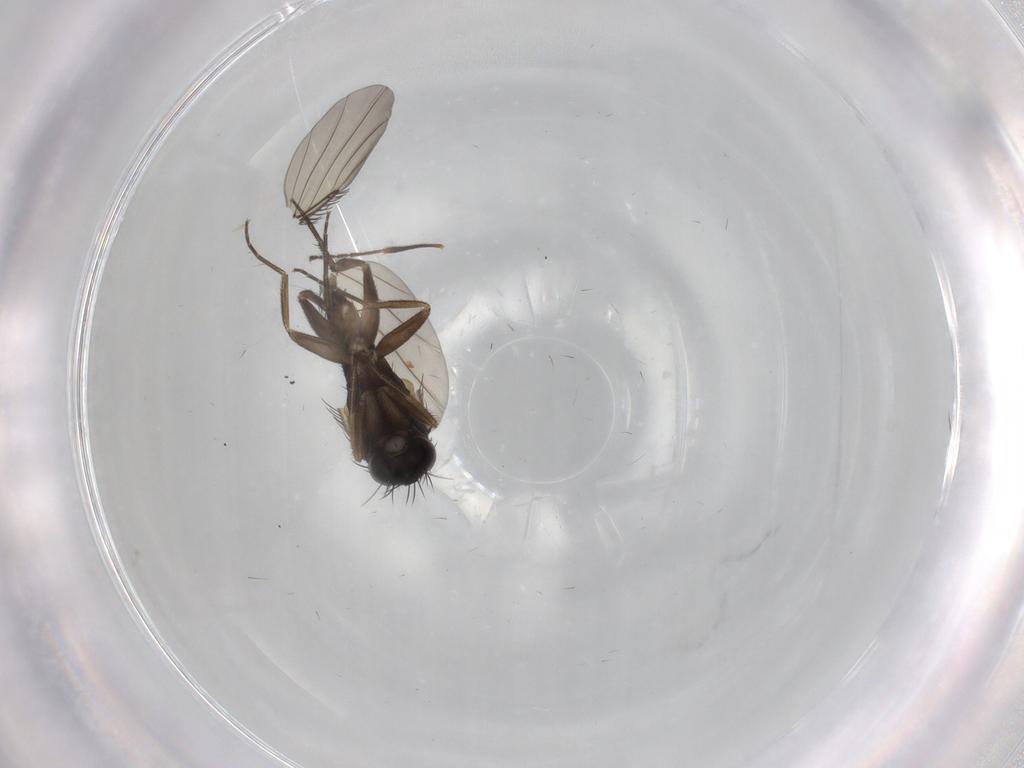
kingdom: Animalia
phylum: Arthropoda
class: Insecta
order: Diptera
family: Phoridae
